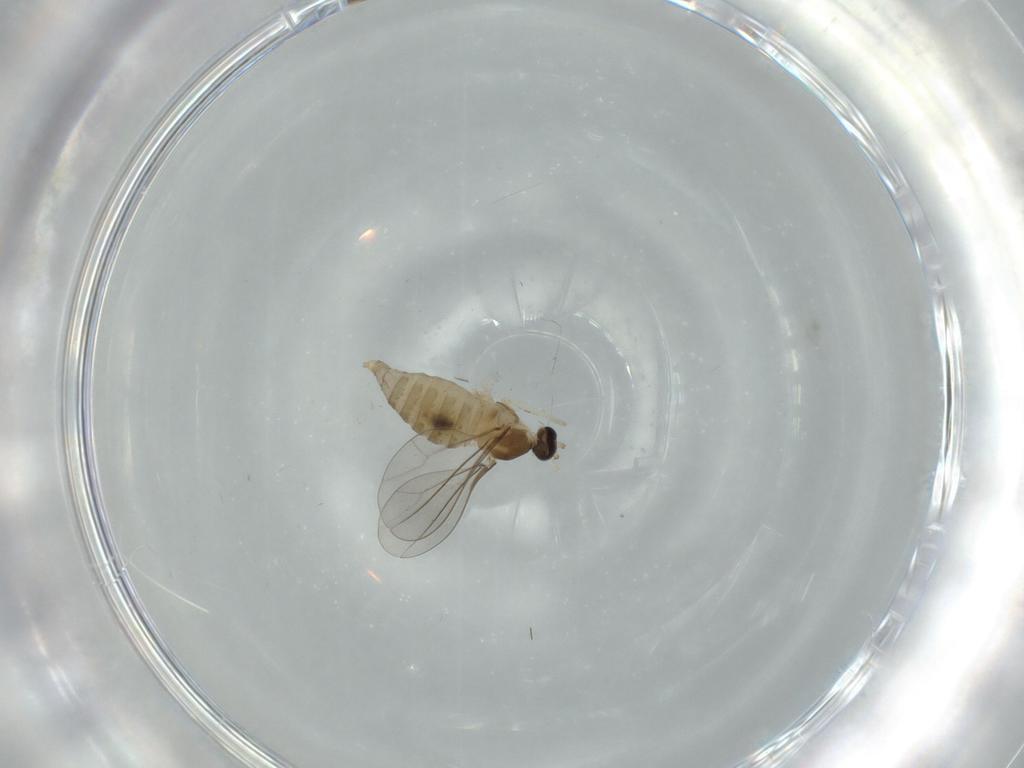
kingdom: Animalia
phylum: Arthropoda
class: Insecta
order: Diptera
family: Cecidomyiidae
